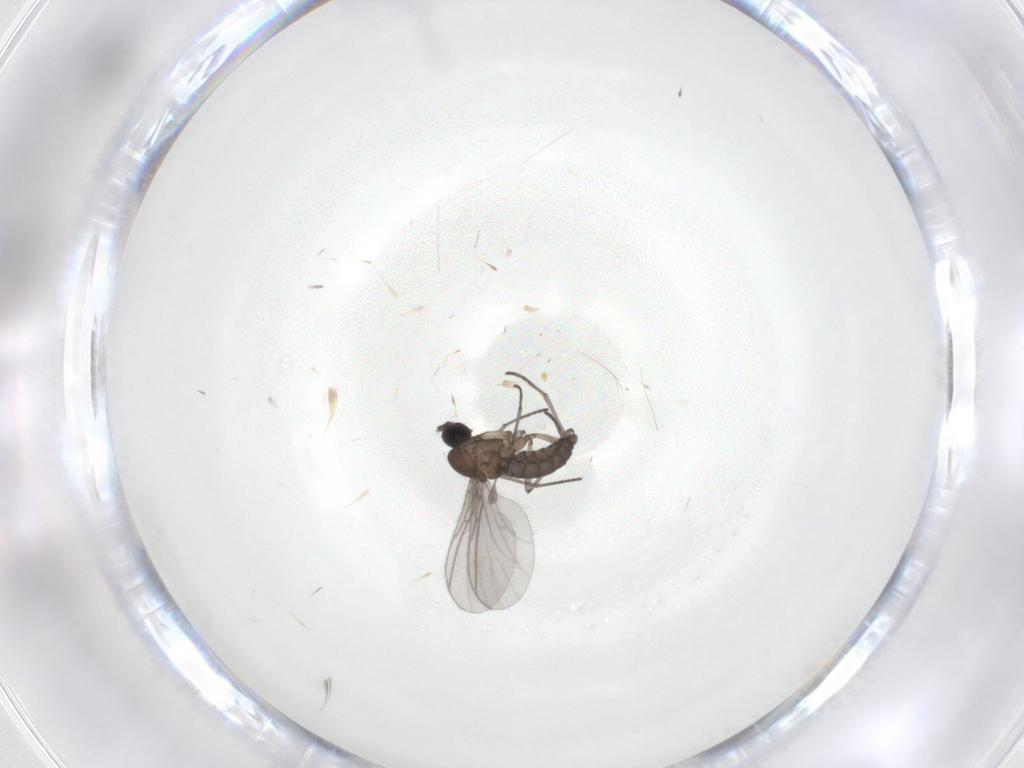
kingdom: Animalia
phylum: Arthropoda
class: Insecta
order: Diptera
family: Sciaridae
